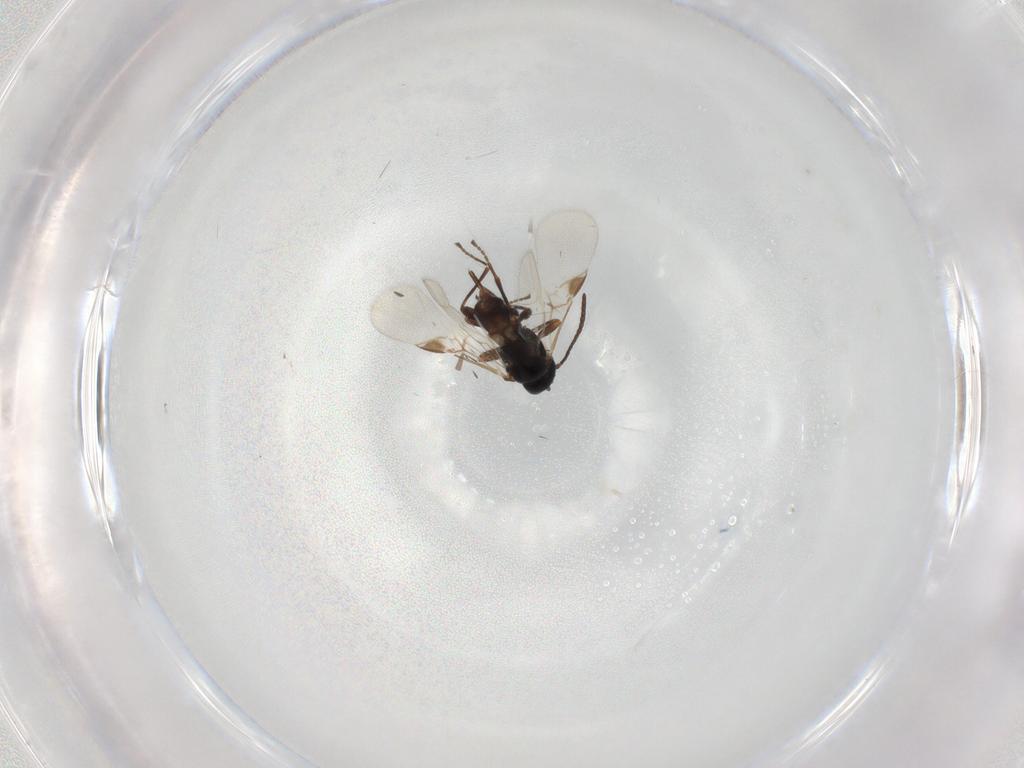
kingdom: Animalia
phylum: Arthropoda
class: Insecta
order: Hymenoptera
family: Braconidae
